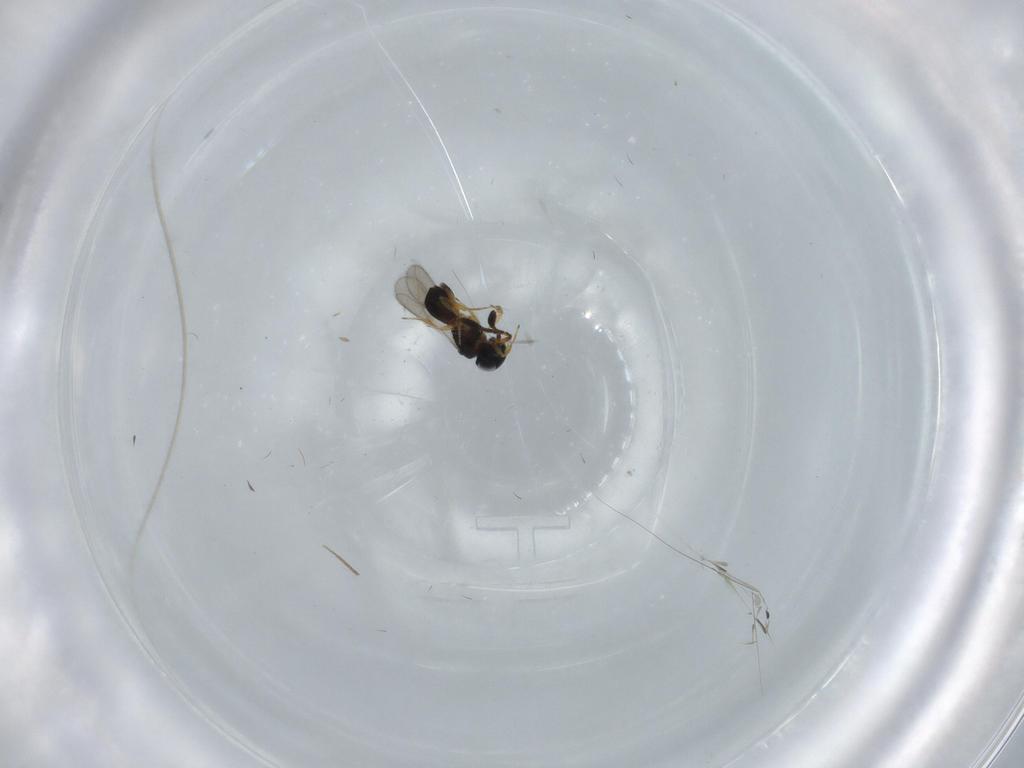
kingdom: Animalia
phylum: Arthropoda
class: Insecta
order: Hymenoptera
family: Scelionidae
